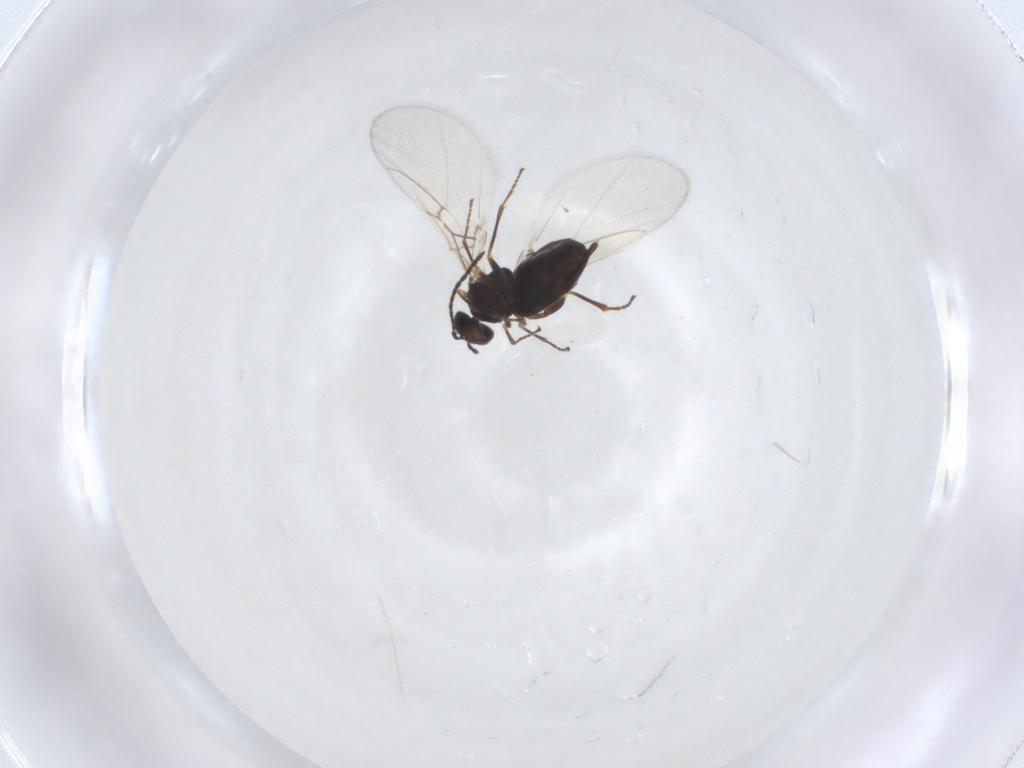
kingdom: Animalia
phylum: Arthropoda
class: Insecta
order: Hymenoptera
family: Cynipidae
